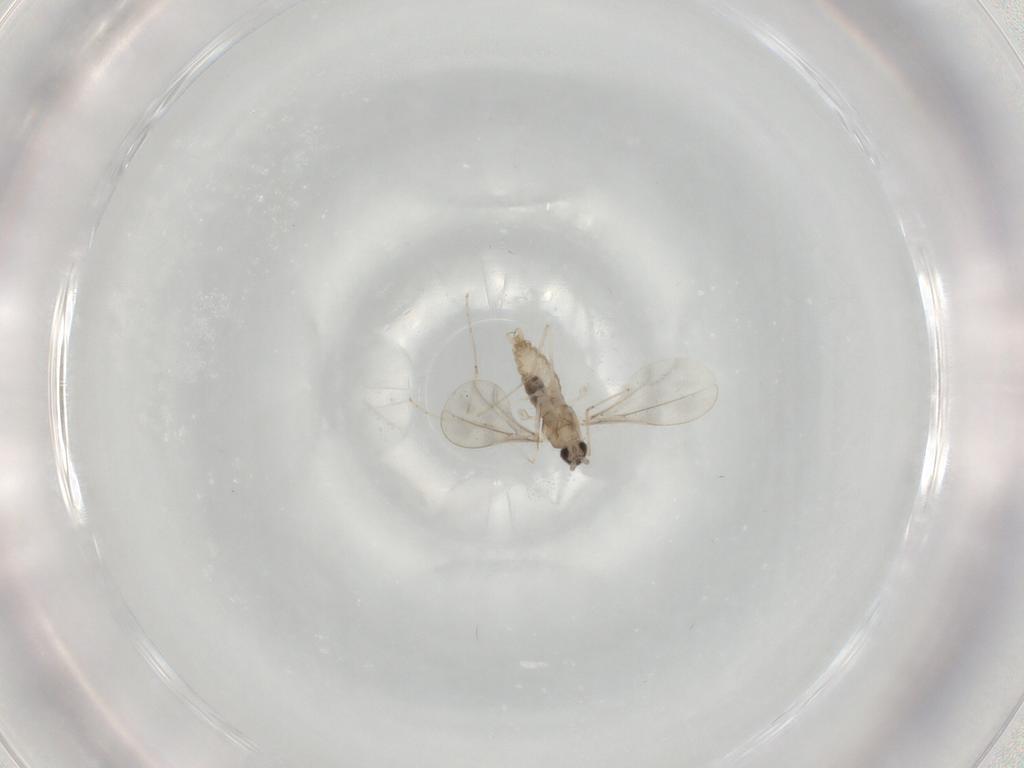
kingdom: Animalia
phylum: Arthropoda
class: Insecta
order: Diptera
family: Cecidomyiidae
